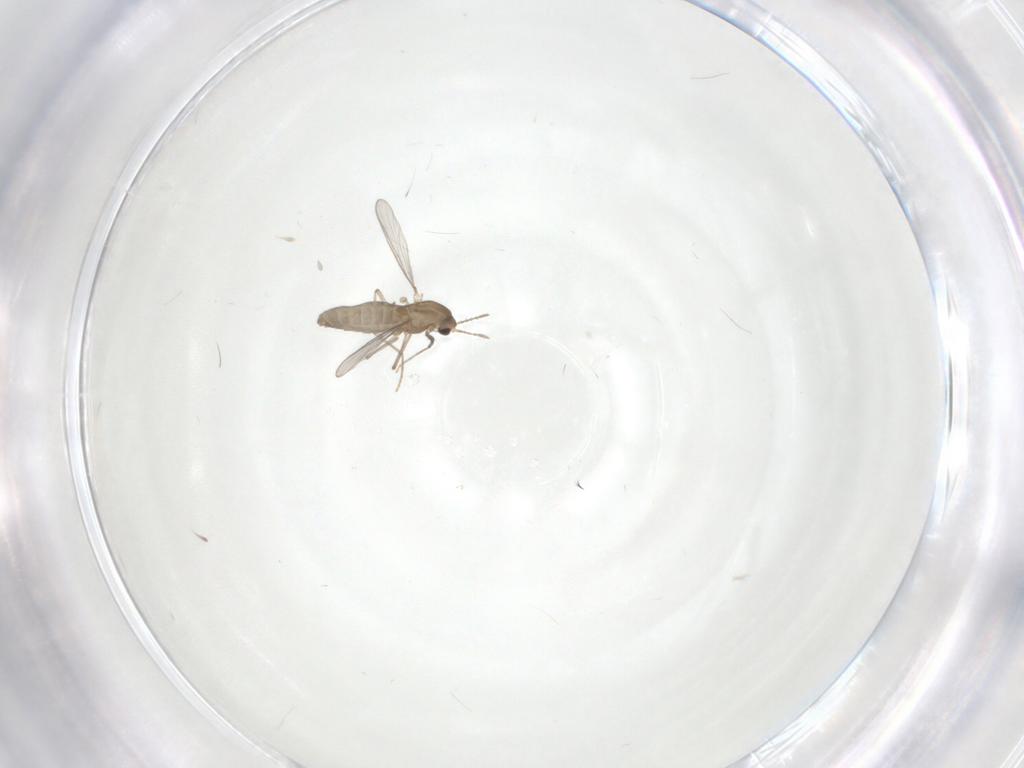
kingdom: Animalia
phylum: Arthropoda
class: Insecta
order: Diptera
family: Chironomidae
